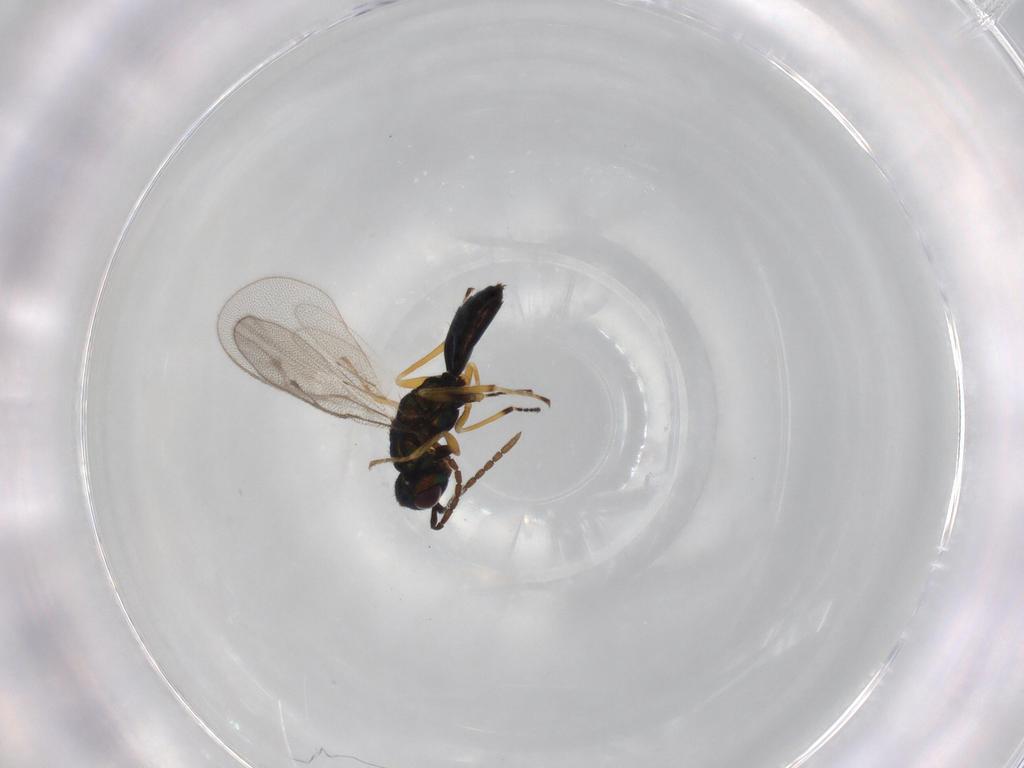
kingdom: Animalia
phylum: Arthropoda
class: Insecta
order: Hymenoptera
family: Pteromalidae
